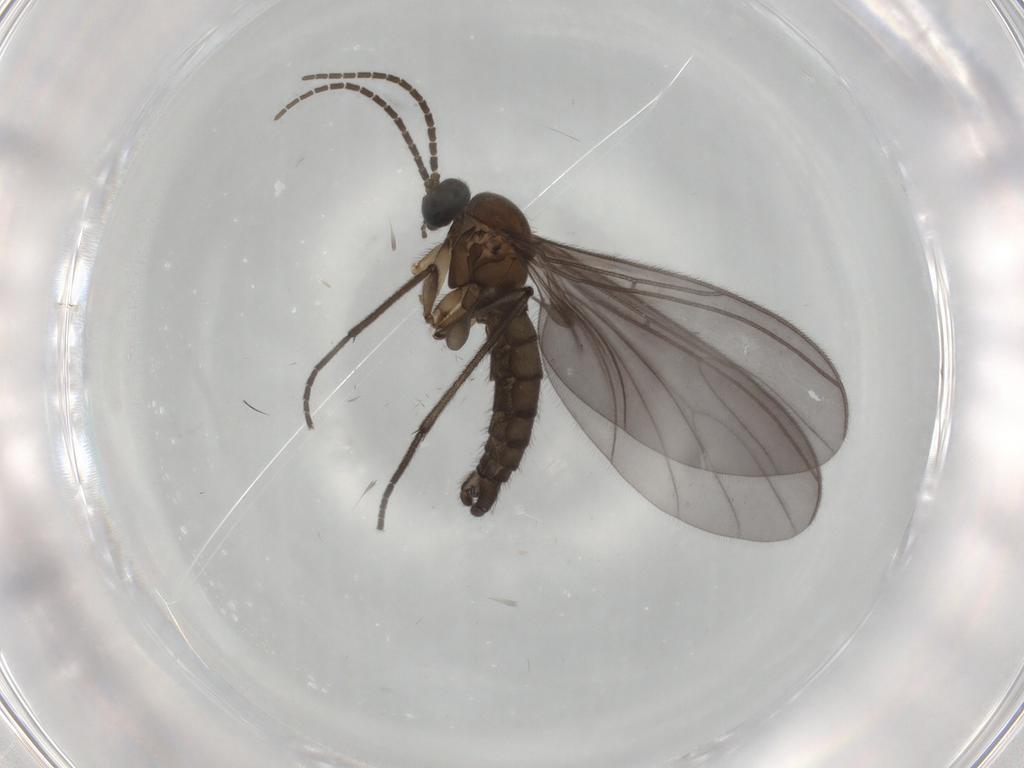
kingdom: Animalia
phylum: Arthropoda
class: Insecta
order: Diptera
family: Sciaridae
